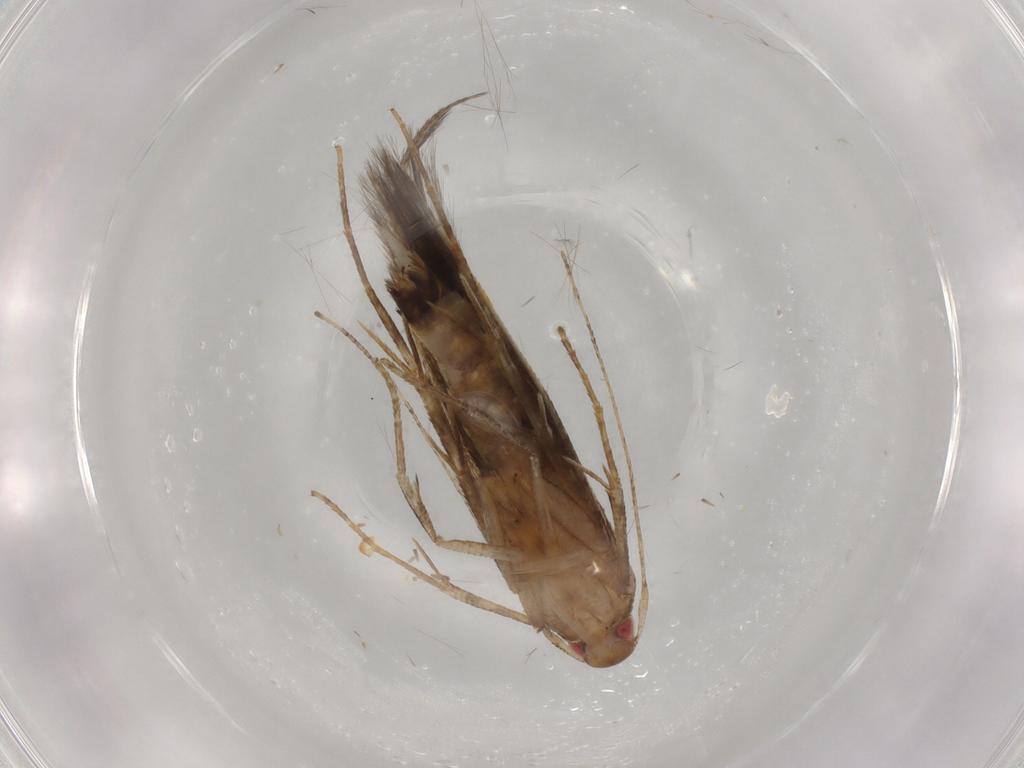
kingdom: Animalia
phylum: Arthropoda
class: Insecta
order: Lepidoptera
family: Cosmopterigidae
